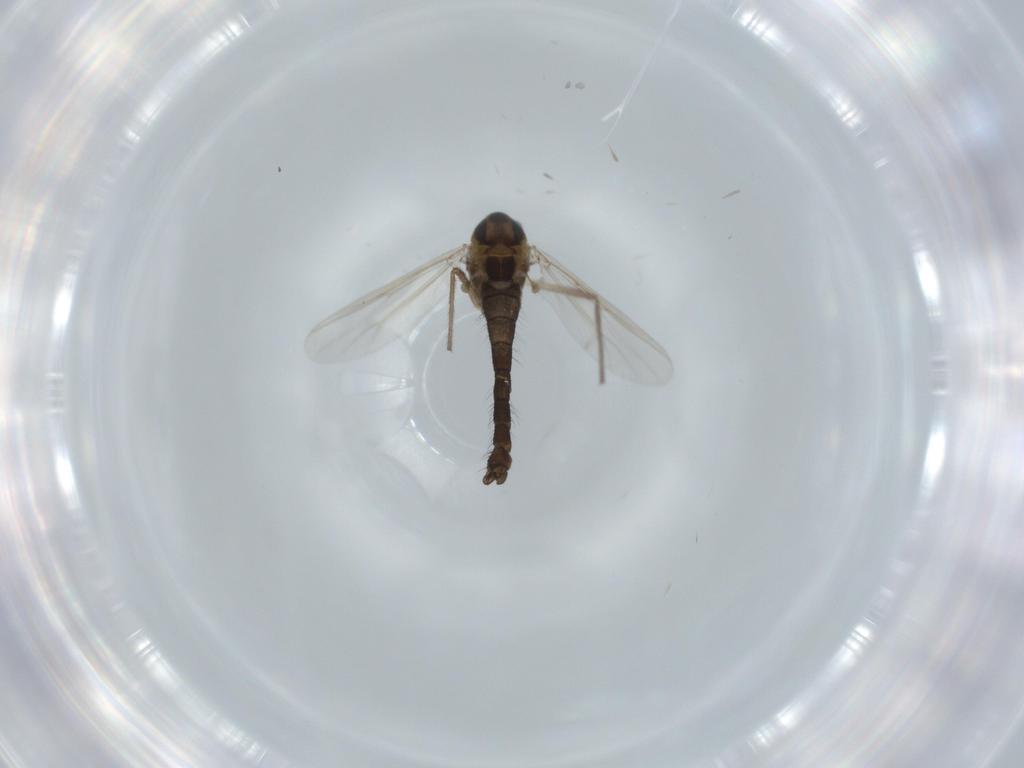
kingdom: Animalia
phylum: Arthropoda
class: Insecta
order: Diptera
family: Chironomidae
